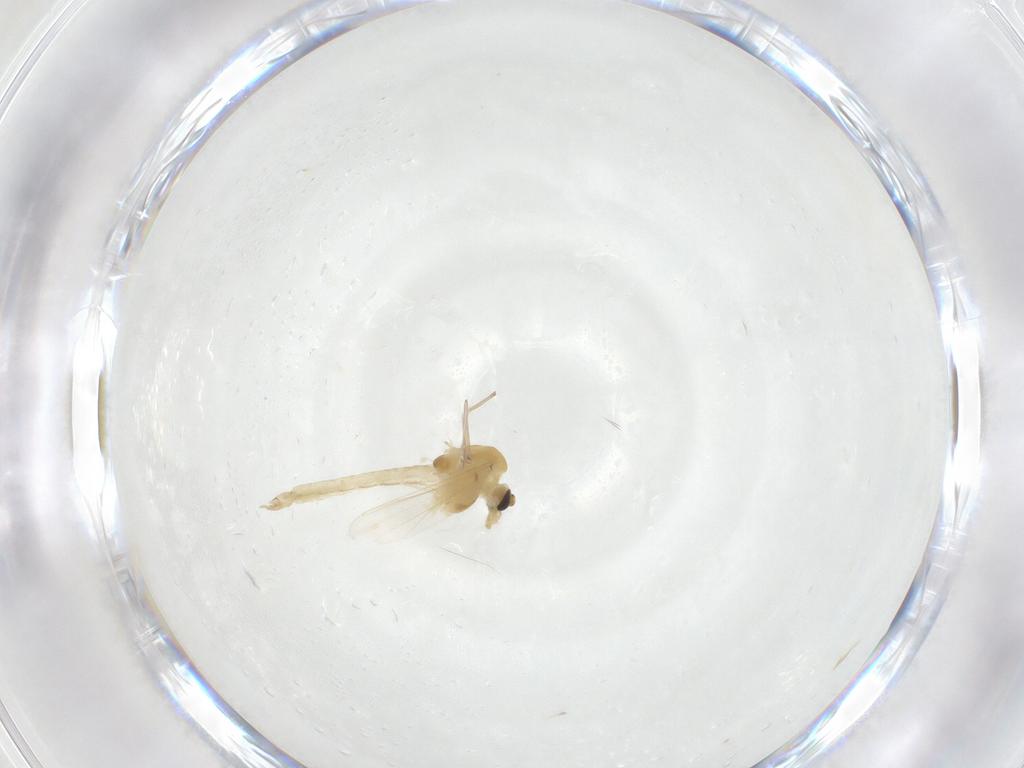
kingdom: Animalia
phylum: Arthropoda
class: Insecta
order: Diptera
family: Chironomidae
